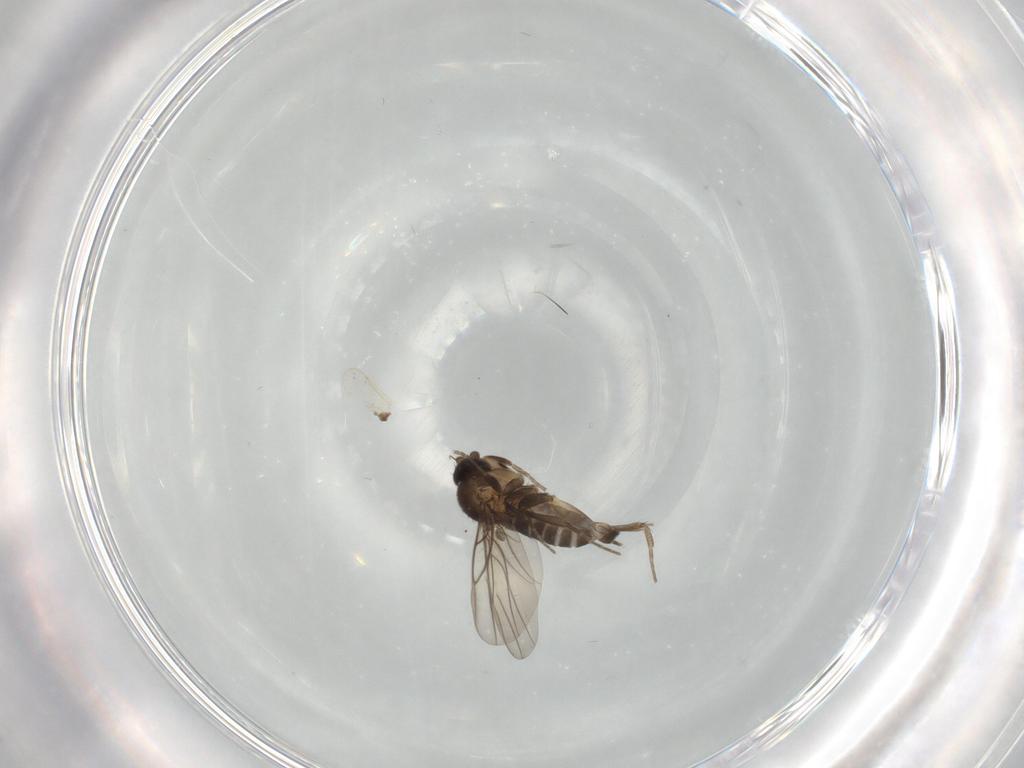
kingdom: Animalia
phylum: Arthropoda
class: Insecta
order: Diptera
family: Phoridae
